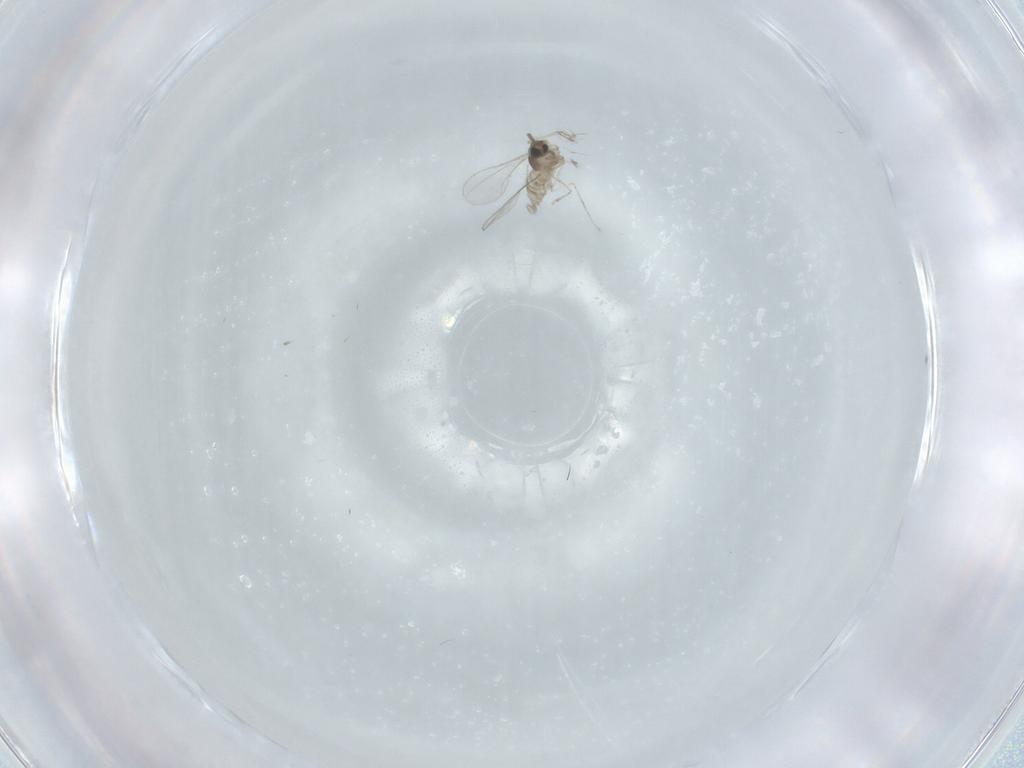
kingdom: Animalia
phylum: Arthropoda
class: Insecta
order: Diptera
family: Cecidomyiidae
